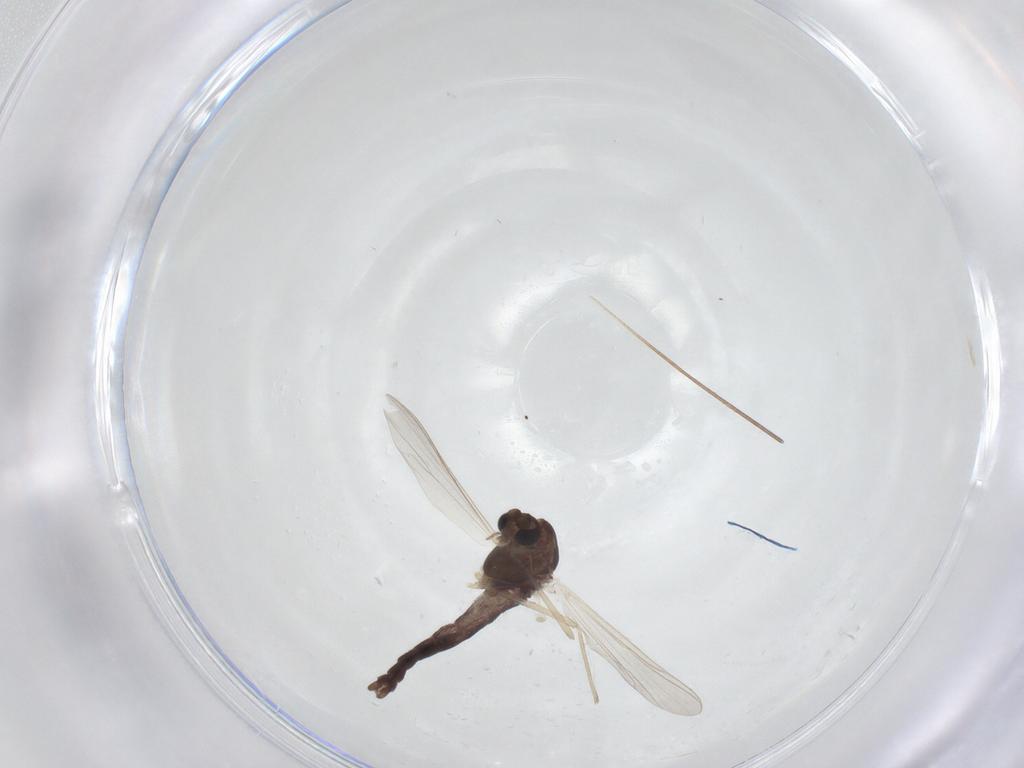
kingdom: Animalia
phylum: Arthropoda
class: Insecta
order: Diptera
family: Chironomidae
